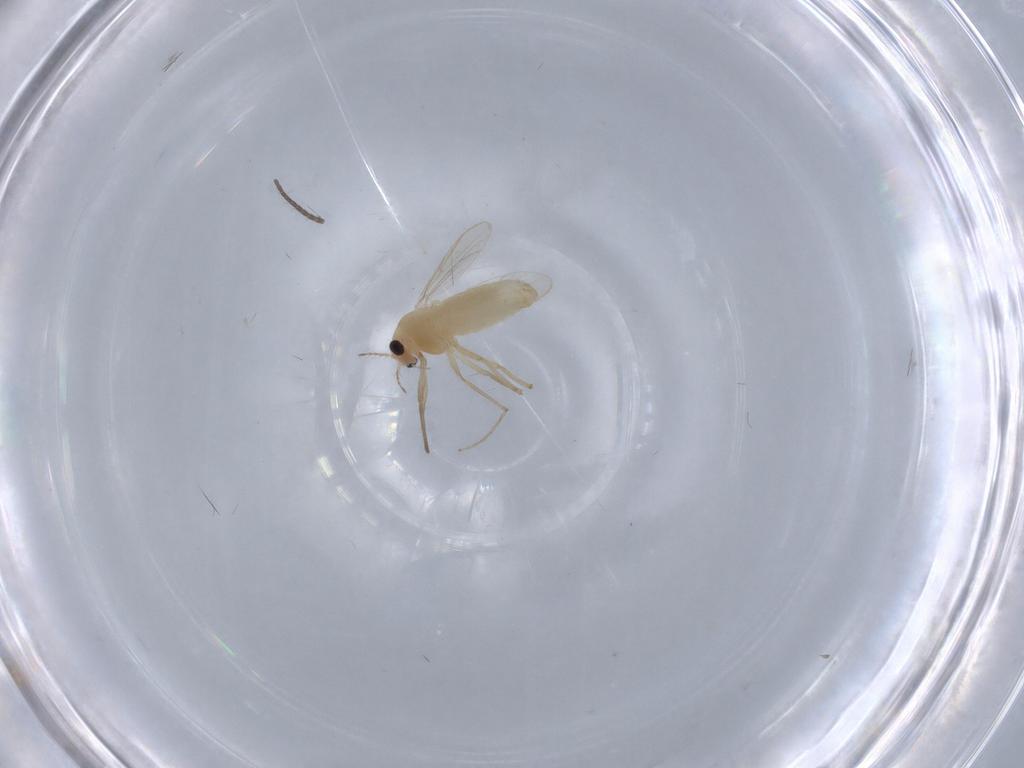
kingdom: Animalia
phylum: Arthropoda
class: Insecta
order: Diptera
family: Chironomidae
